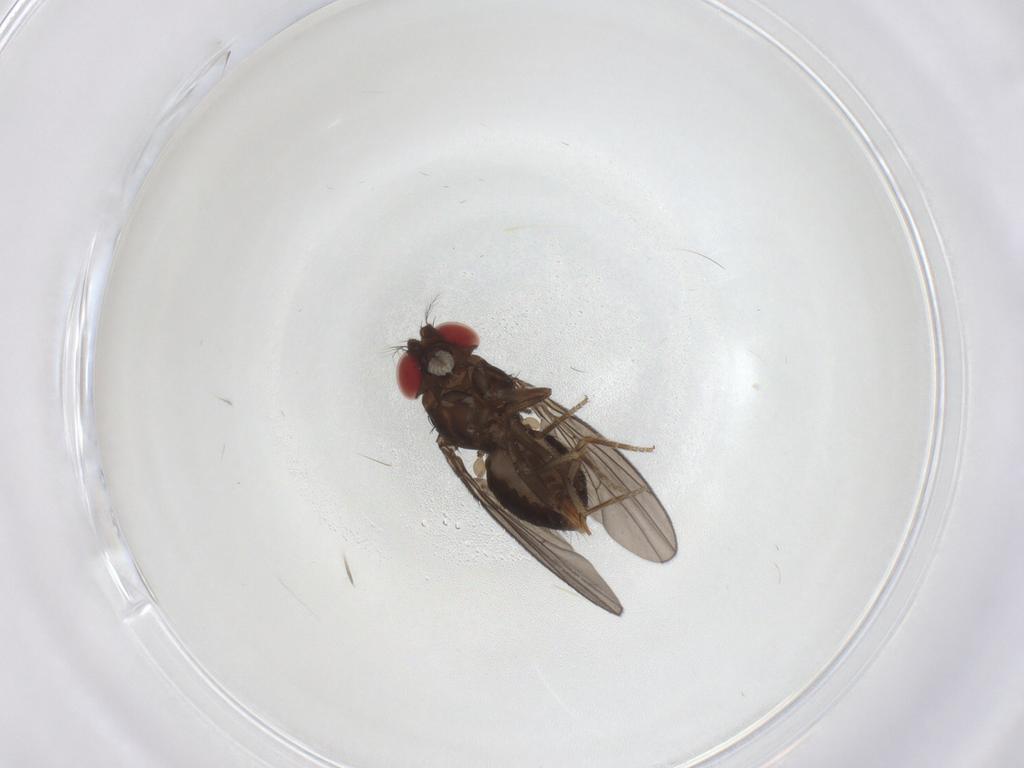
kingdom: Animalia
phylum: Arthropoda
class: Insecta
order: Diptera
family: Drosophilidae
